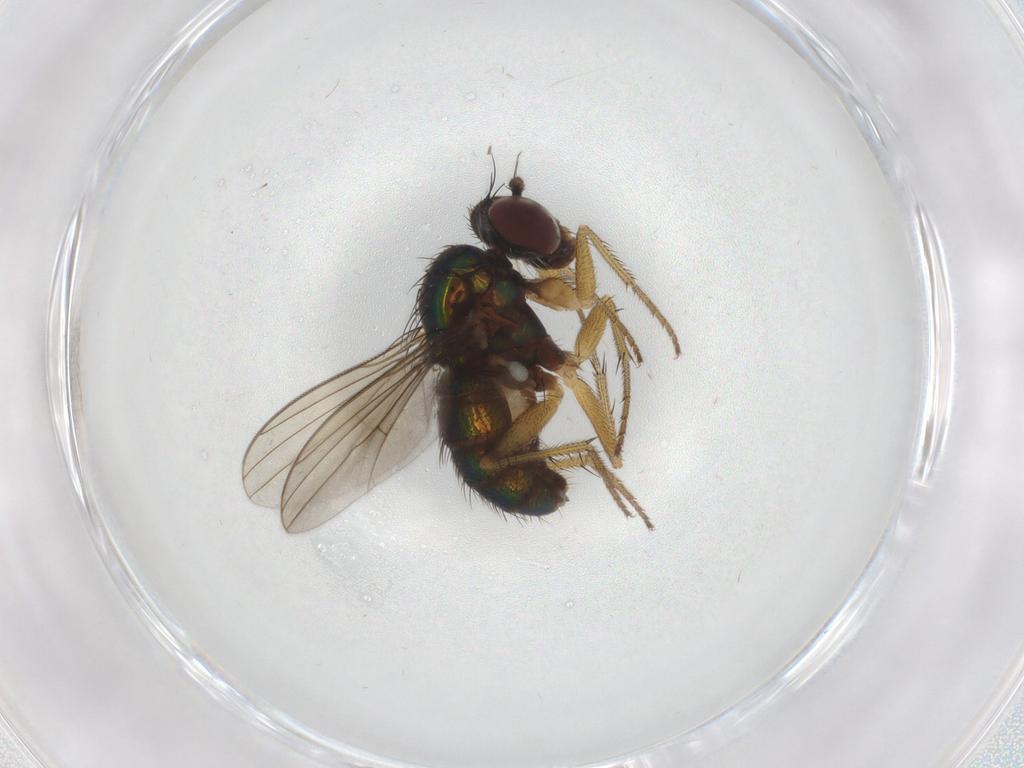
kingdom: Animalia
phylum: Arthropoda
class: Insecta
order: Diptera
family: Dolichopodidae
